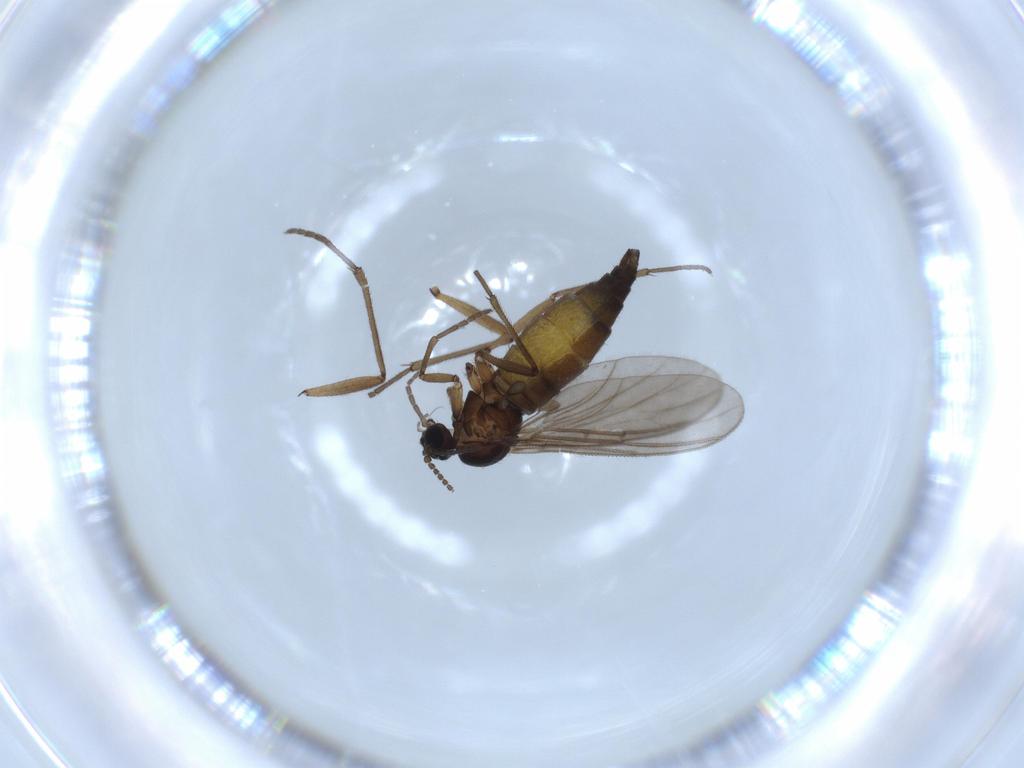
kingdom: Animalia
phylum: Arthropoda
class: Insecta
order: Diptera
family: Sciaridae
